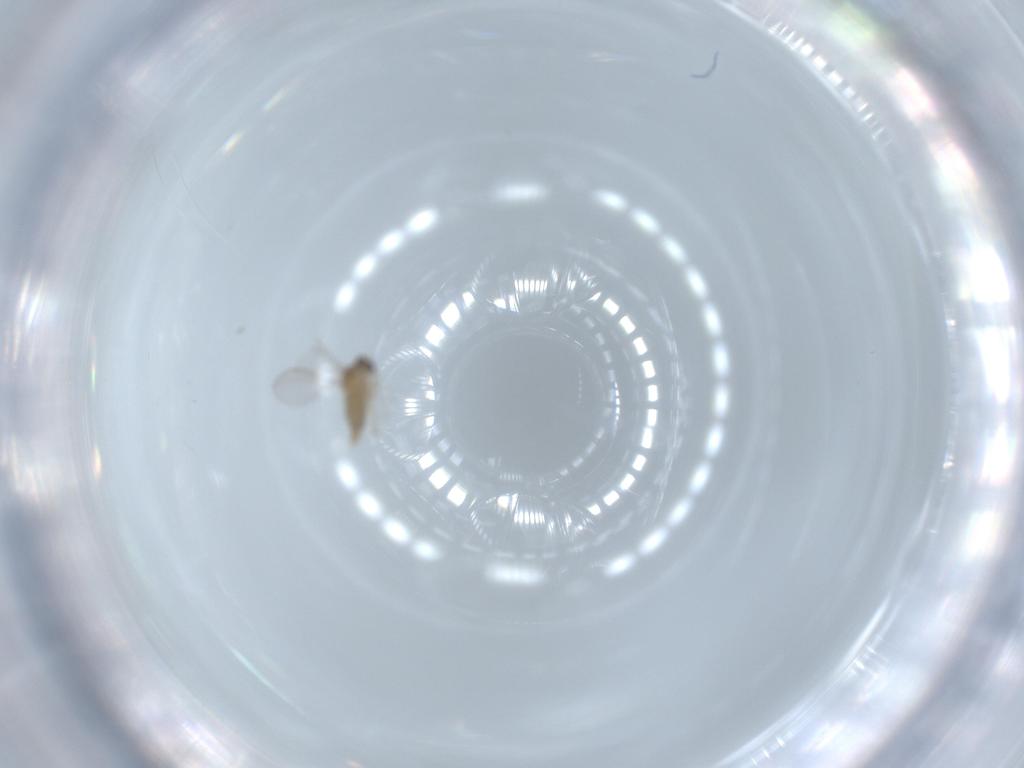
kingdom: Animalia
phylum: Arthropoda
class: Insecta
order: Diptera
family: Cecidomyiidae
